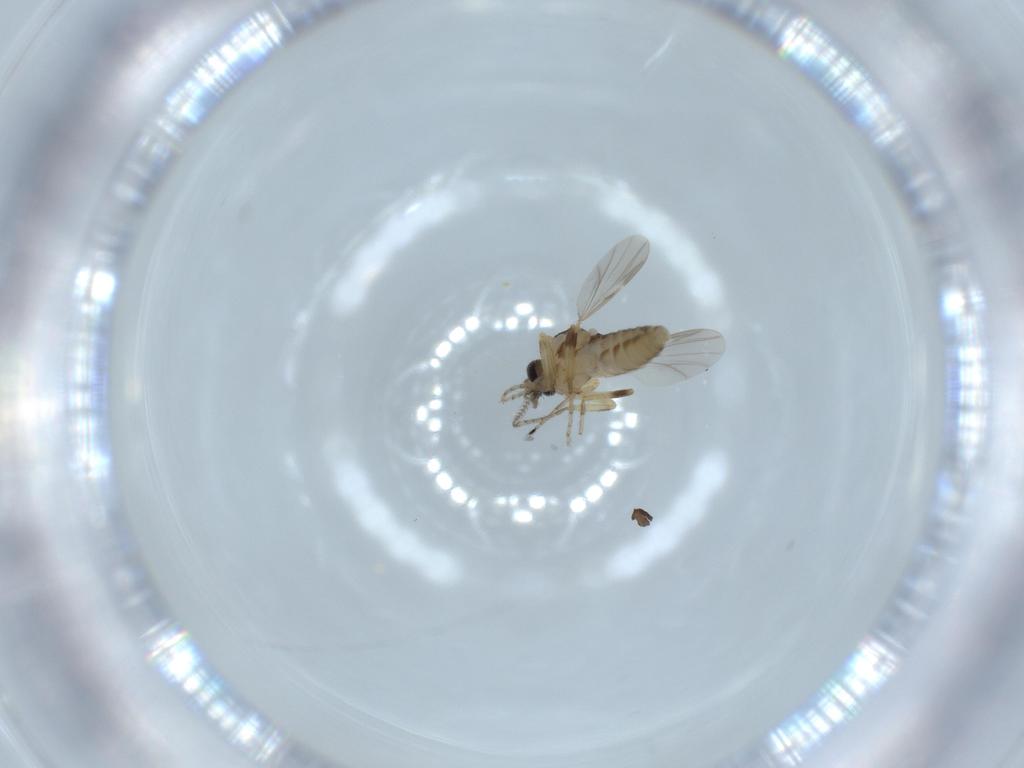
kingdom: Animalia
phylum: Arthropoda
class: Insecta
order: Diptera
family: Ceratopogonidae
